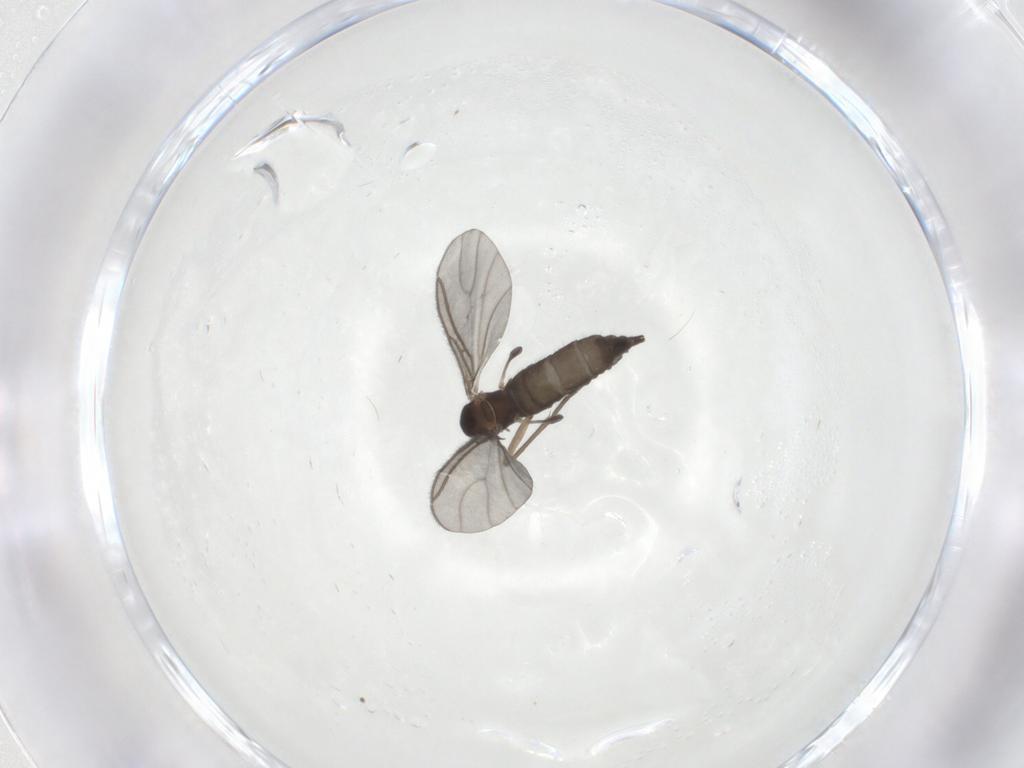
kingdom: Animalia
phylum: Arthropoda
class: Insecta
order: Diptera
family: Sciaridae
